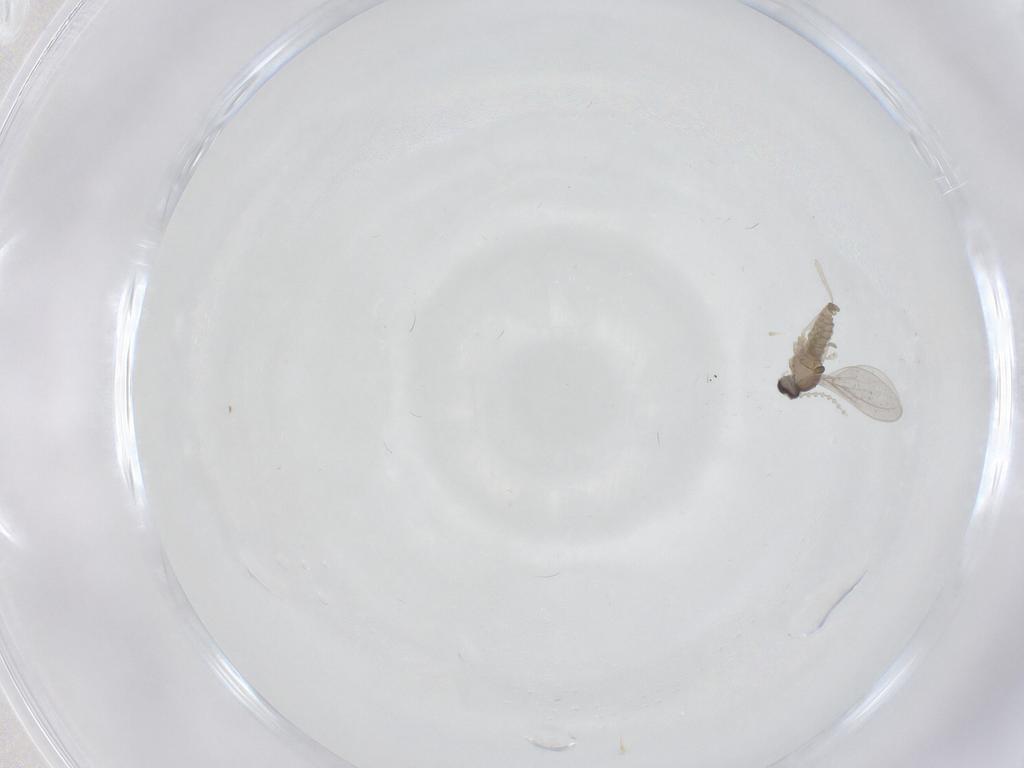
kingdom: Animalia
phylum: Arthropoda
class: Insecta
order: Diptera
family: Cecidomyiidae
